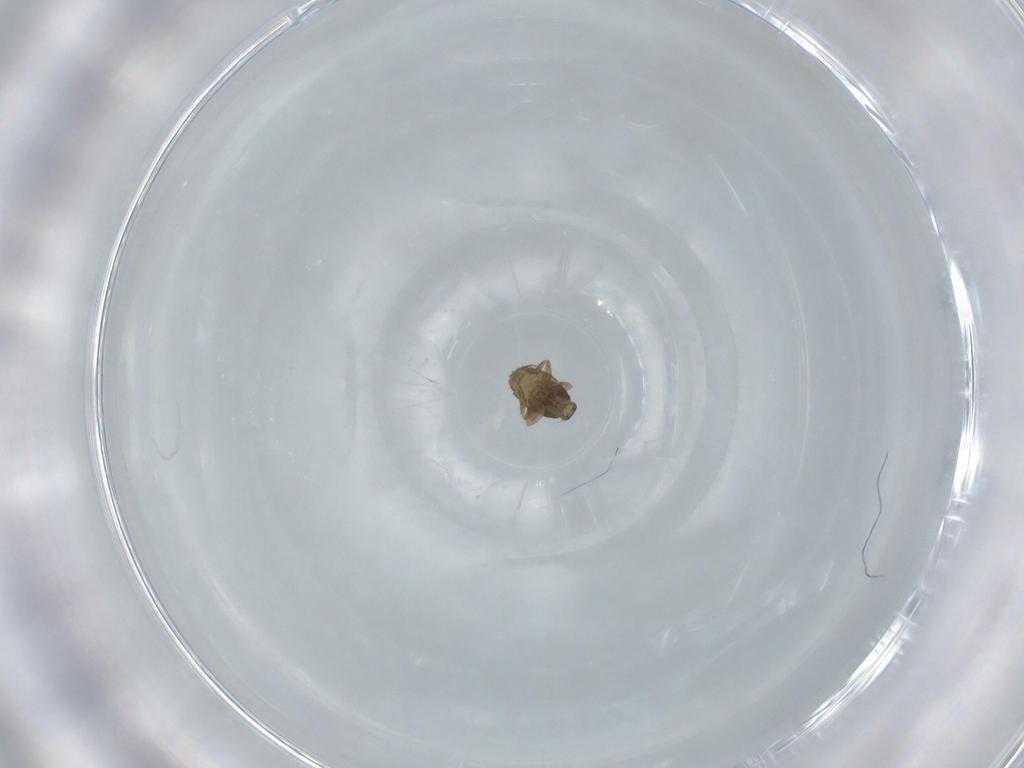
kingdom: Animalia
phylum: Arthropoda
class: Insecta
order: Diptera
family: Phoridae
